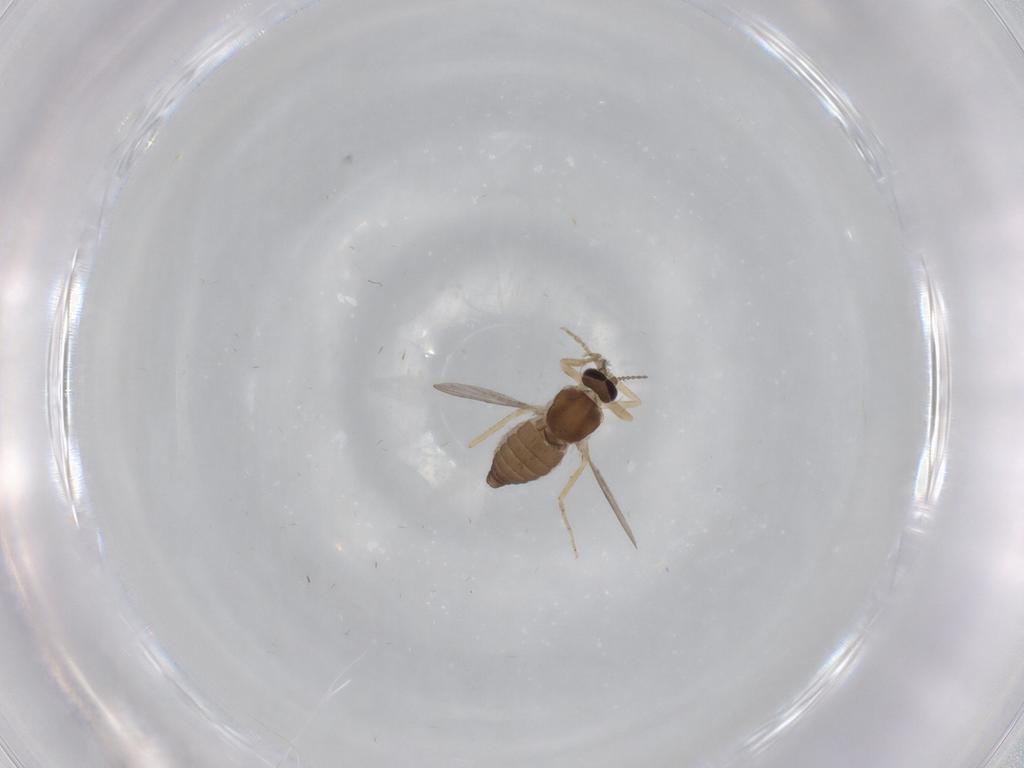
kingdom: Animalia
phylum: Arthropoda
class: Insecta
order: Diptera
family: Ceratopogonidae
